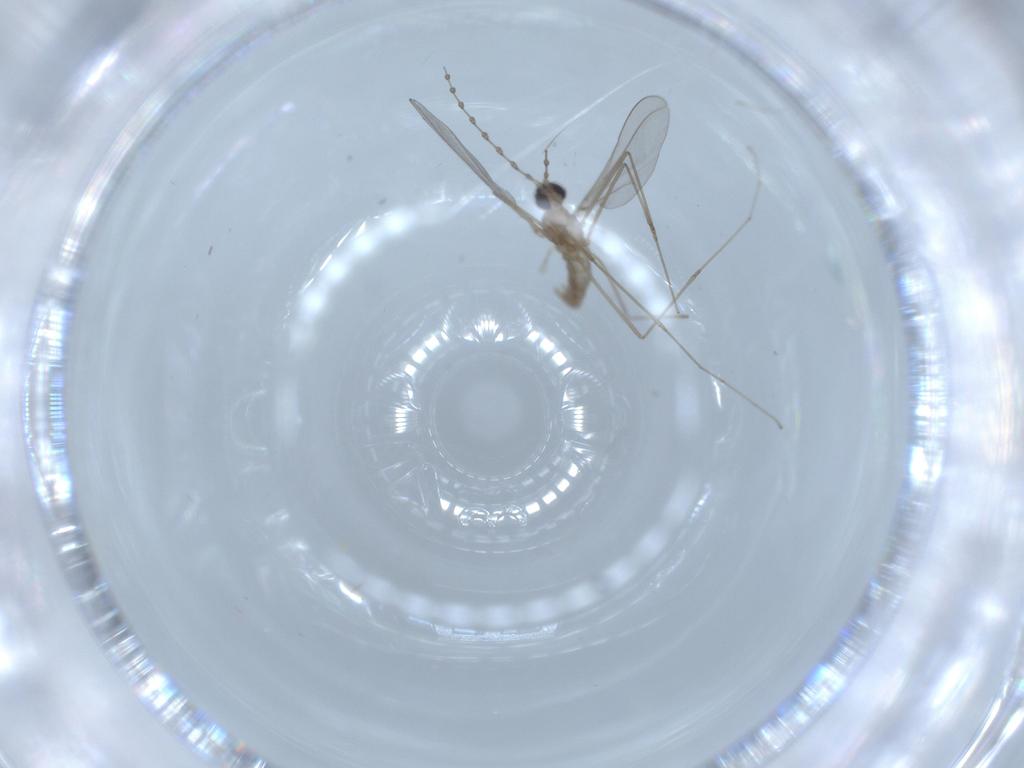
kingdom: Animalia
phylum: Arthropoda
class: Insecta
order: Diptera
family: Cecidomyiidae
